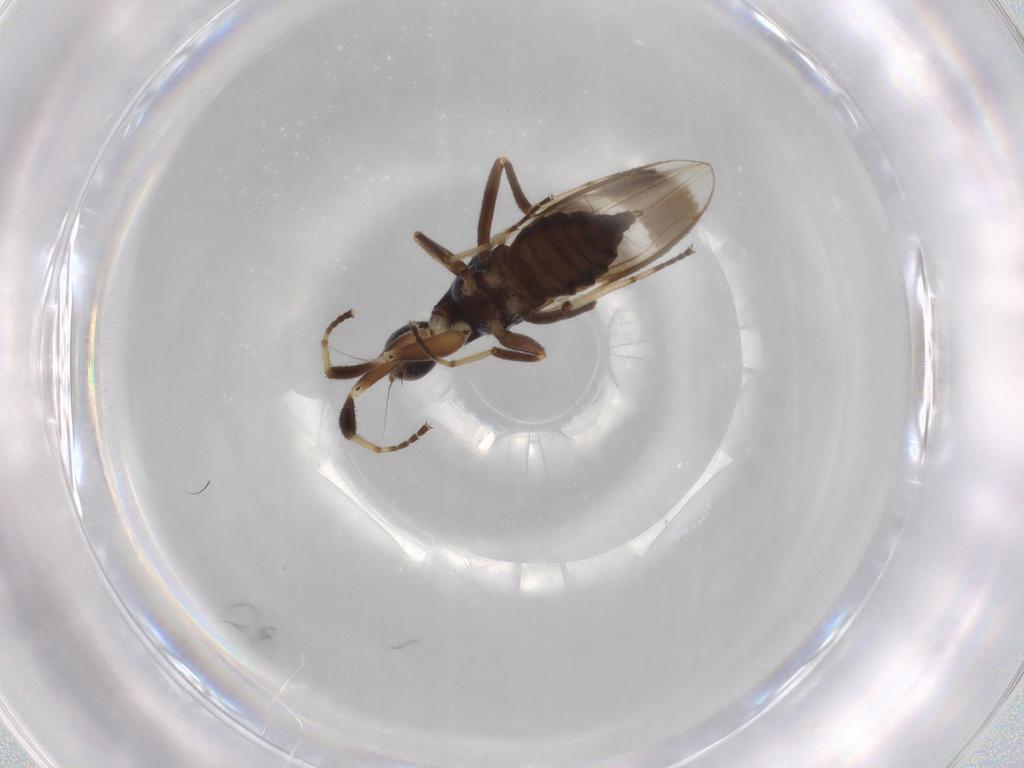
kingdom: Animalia
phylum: Arthropoda
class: Insecta
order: Diptera
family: Hybotidae
